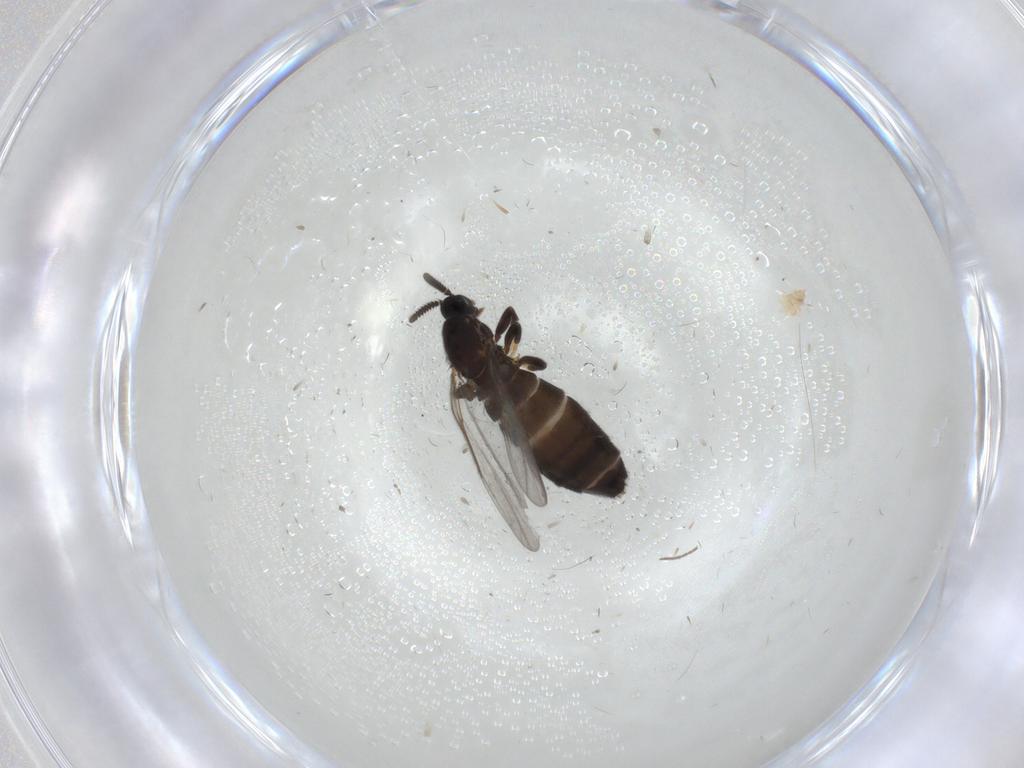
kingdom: Animalia
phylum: Arthropoda
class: Insecta
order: Diptera
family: Scatopsidae
